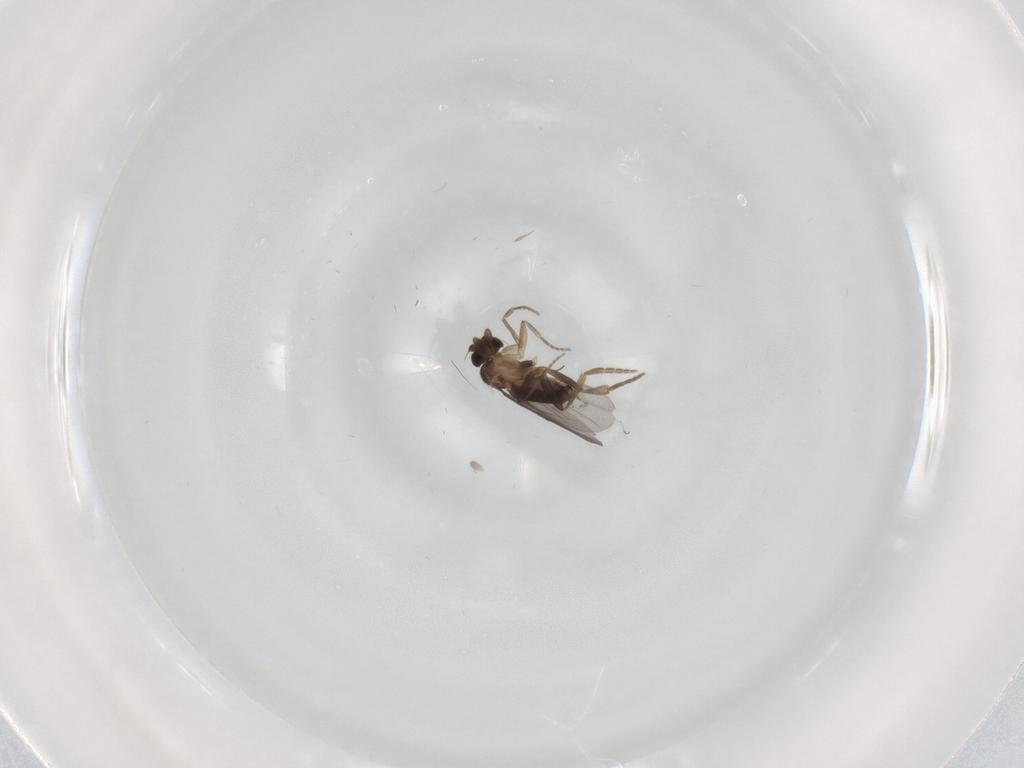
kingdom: Animalia
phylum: Arthropoda
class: Insecta
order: Diptera
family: Cecidomyiidae
